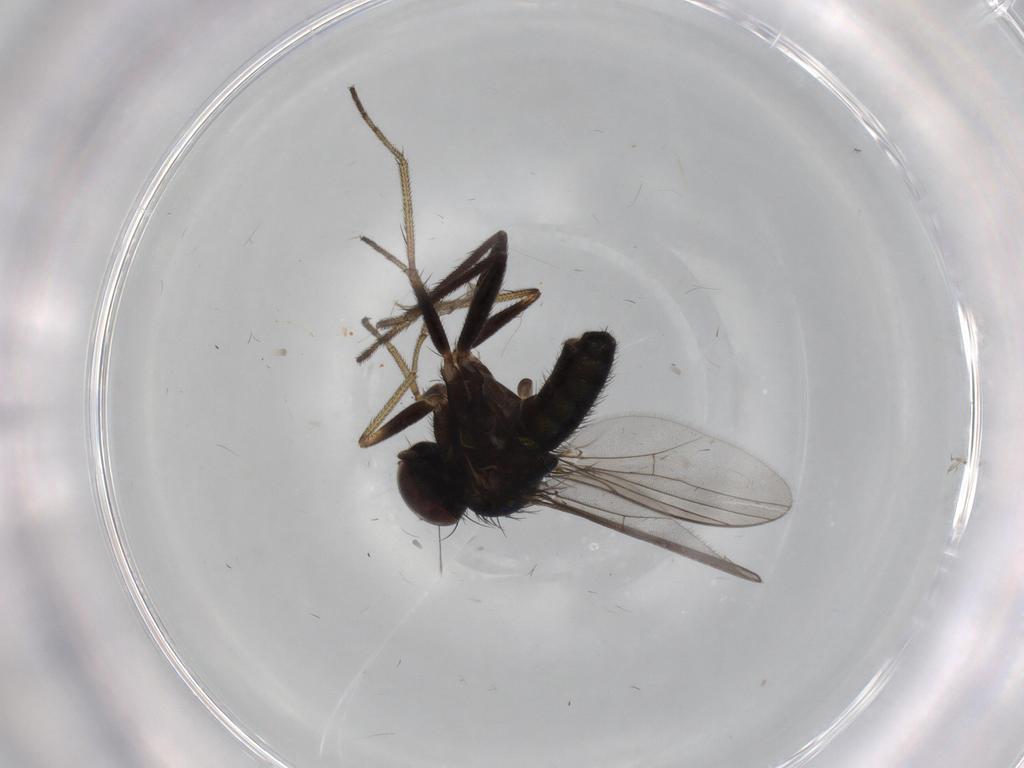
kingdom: Animalia
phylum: Arthropoda
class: Insecta
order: Diptera
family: Dolichopodidae
